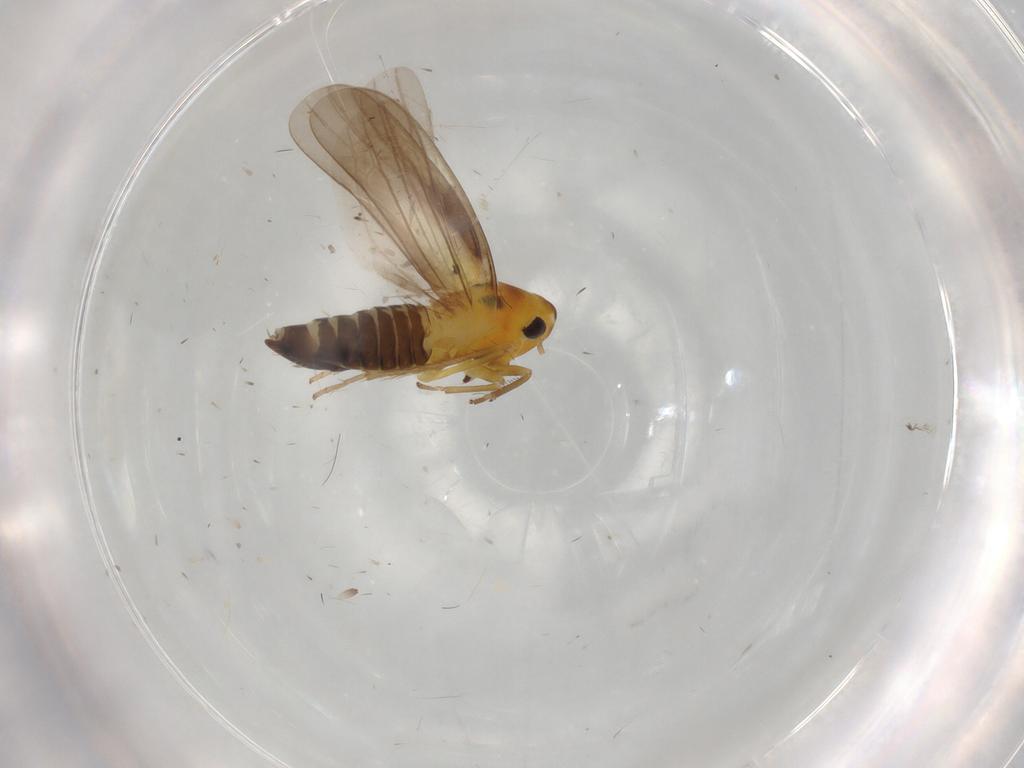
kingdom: Animalia
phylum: Arthropoda
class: Insecta
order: Hemiptera
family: Cicadellidae
